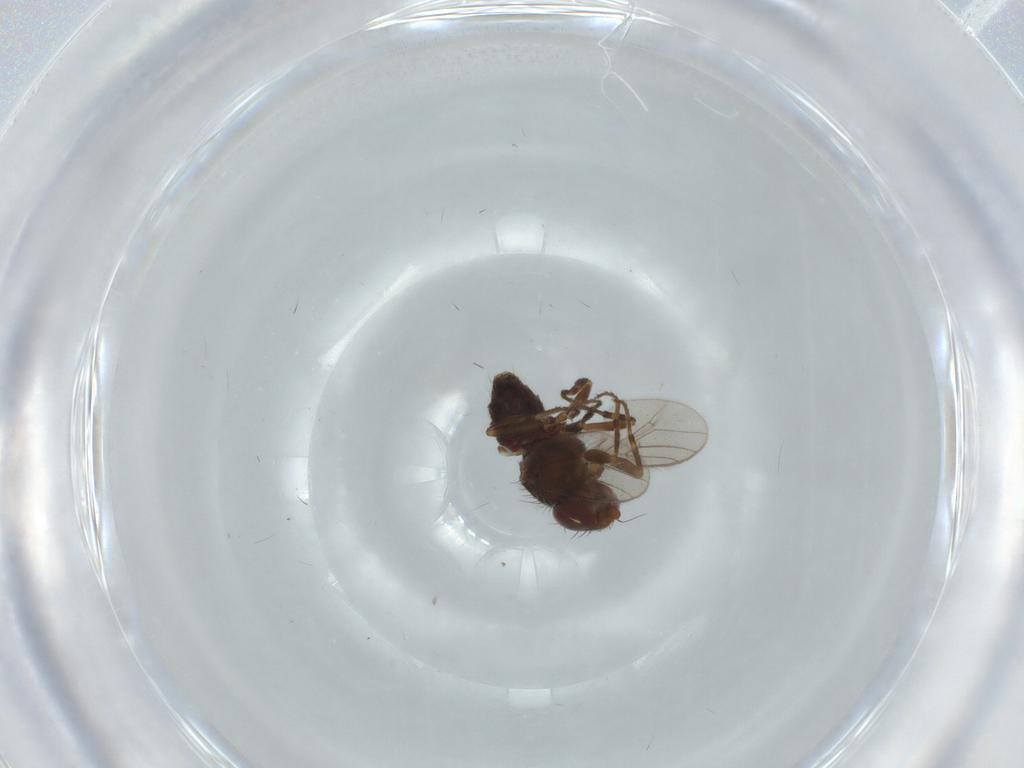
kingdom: Animalia
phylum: Arthropoda
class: Insecta
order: Diptera
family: Chloropidae
